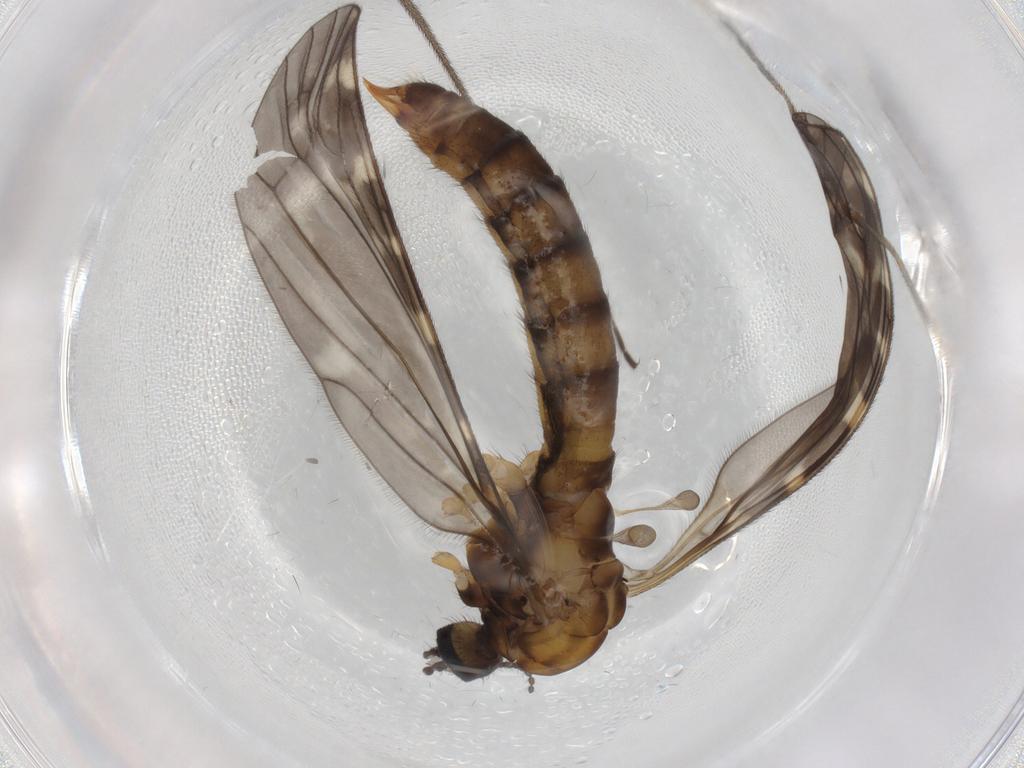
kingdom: Animalia
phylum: Arthropoda
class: Insecta
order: Diptera
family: Limoniidae
